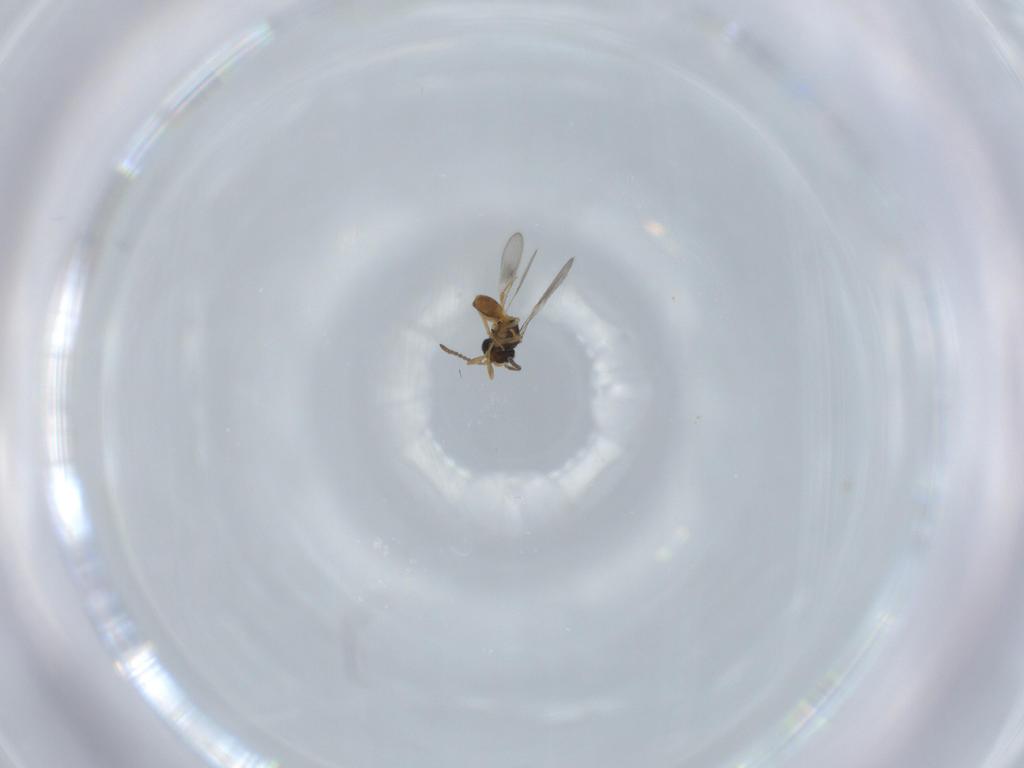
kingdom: Animalia
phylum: Arthropoda
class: Insecta
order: Hymenoptera
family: Scelionidae
